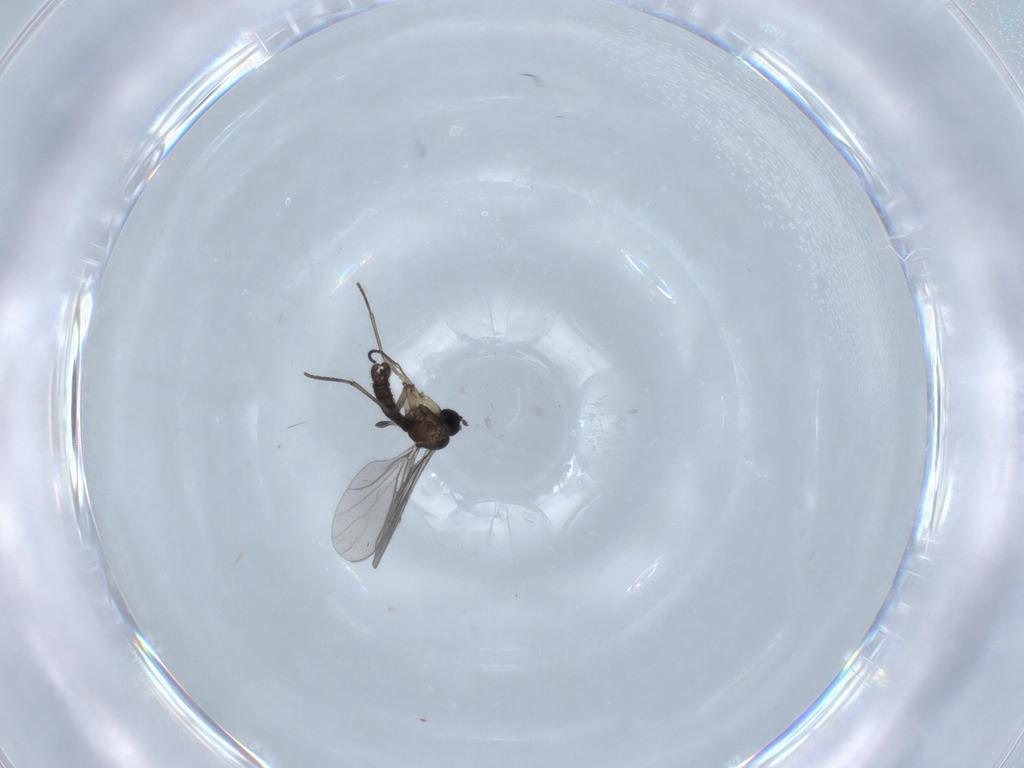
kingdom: Animalia
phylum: Arthropoda
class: Insecta
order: Diptera
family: Sciaridae
